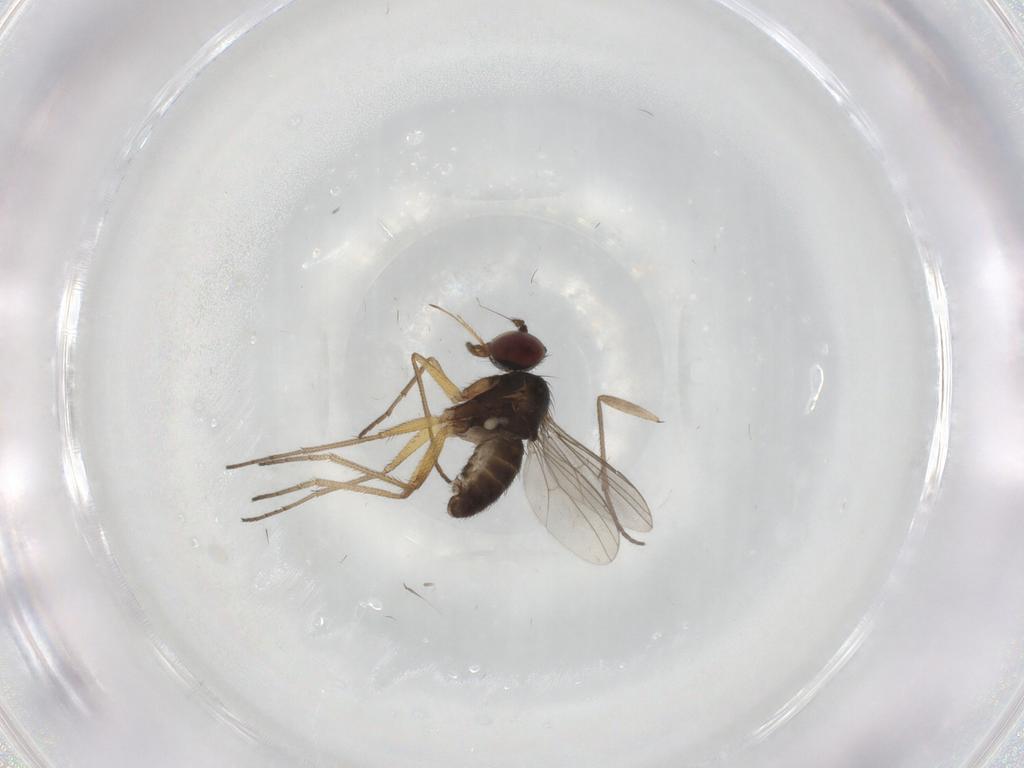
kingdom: Animalia
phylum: Arthropoda
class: Insecta
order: Diptera
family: Dolichopodidae
